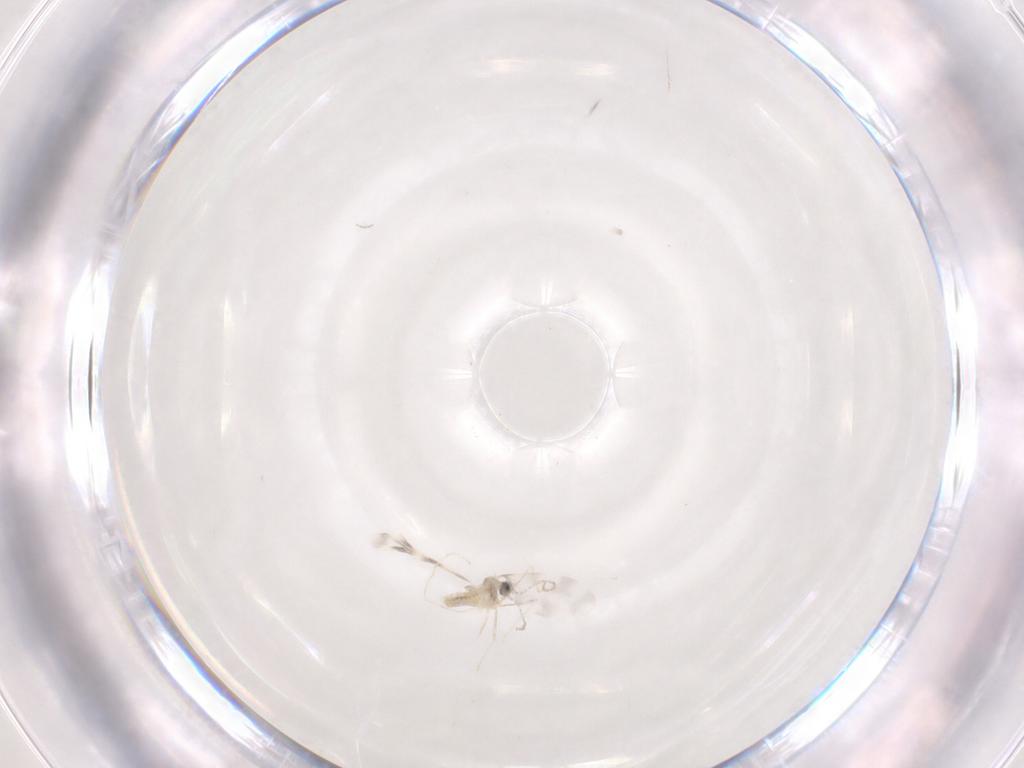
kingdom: Animalia
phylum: Arthropoda
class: Insecta
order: Diptera
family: Cecidomyiidae
